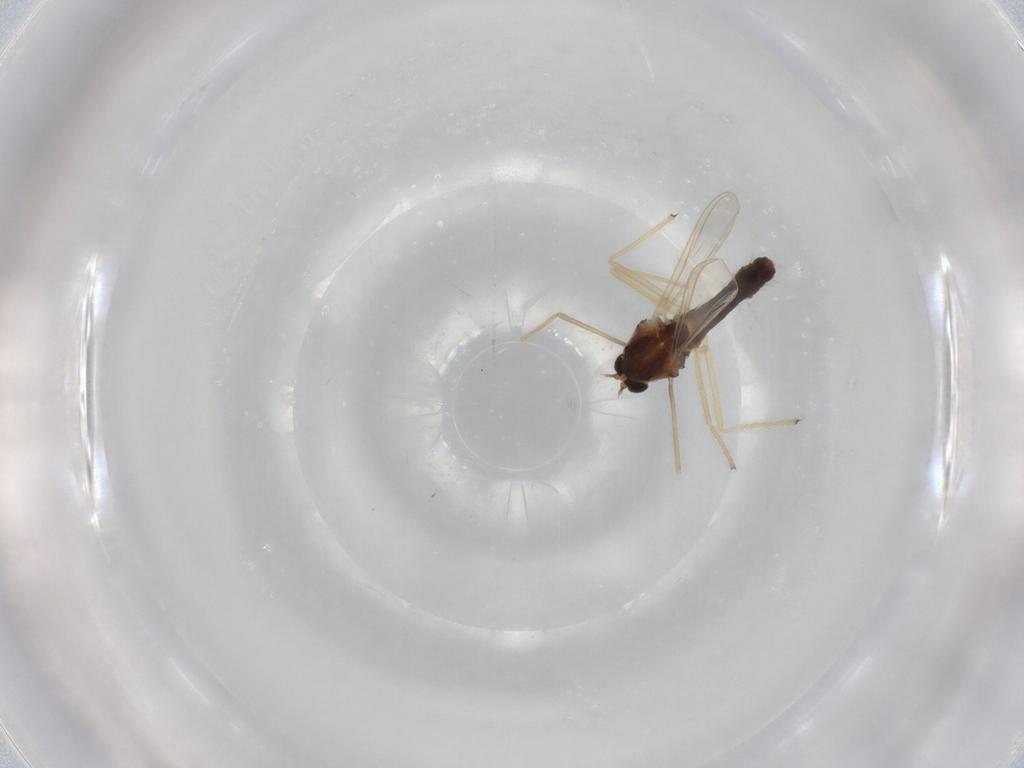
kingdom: Animalia
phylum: Arthropoda
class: Insecta
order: Diptera
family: Chironomidae
